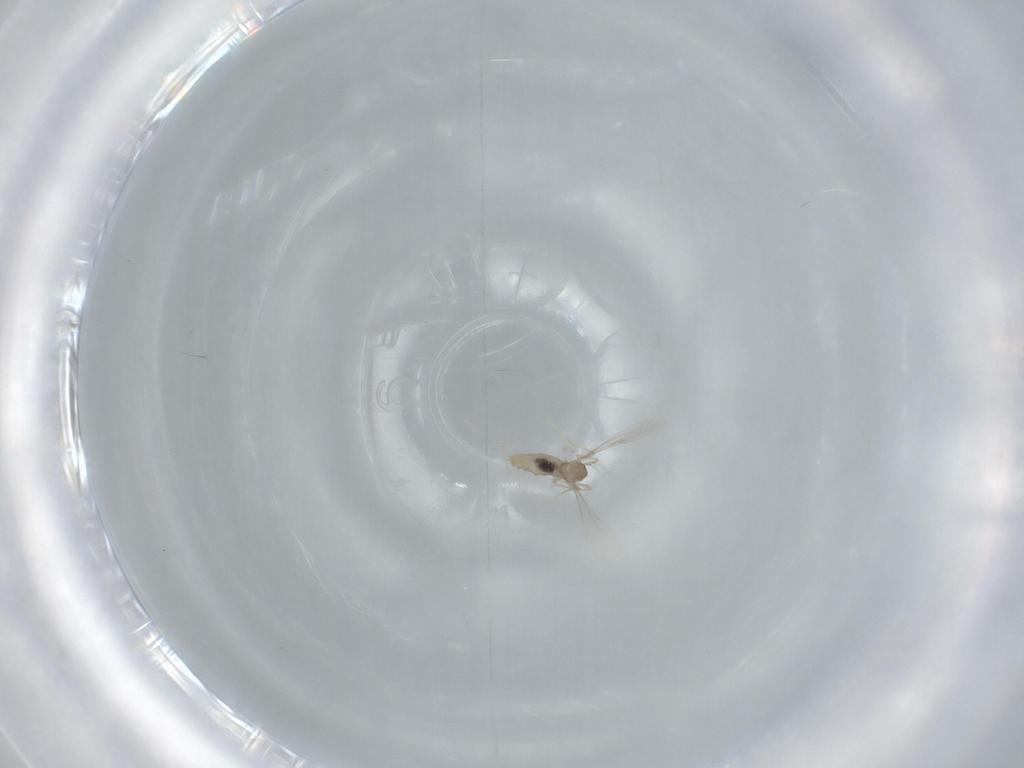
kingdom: Animalia
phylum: Arthropoda
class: Insecta
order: Diptera
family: Cecidomyiidae
